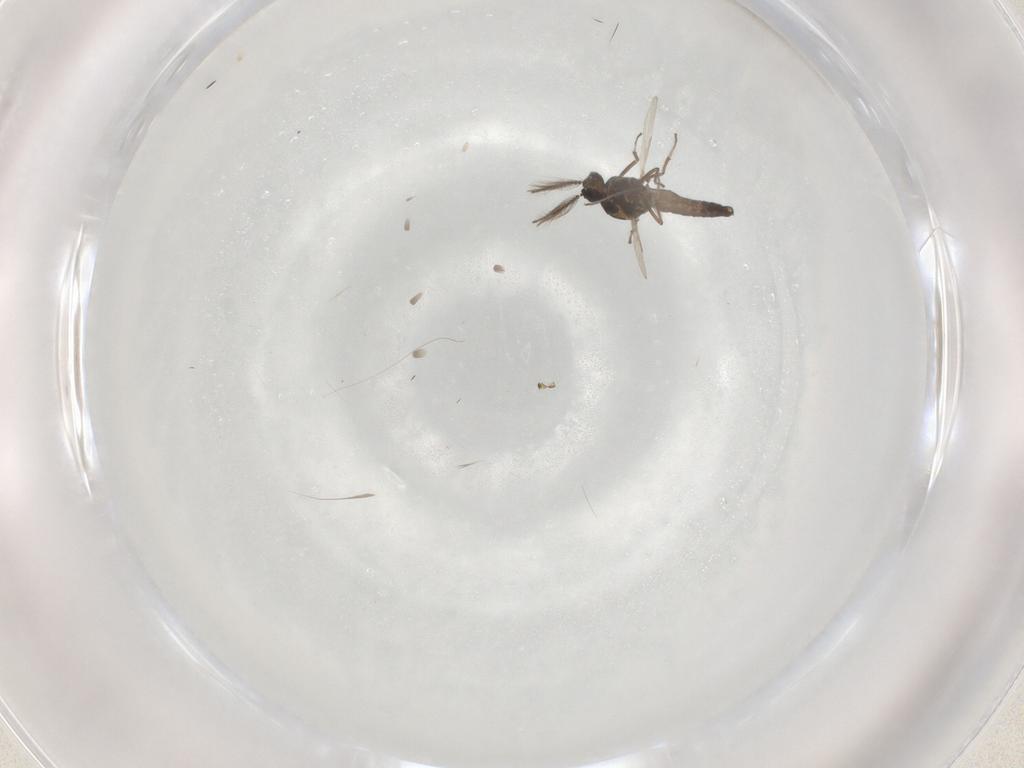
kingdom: Animalia
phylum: Arthropoda
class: Insecta
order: Diptera
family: Ceratopogonidae
